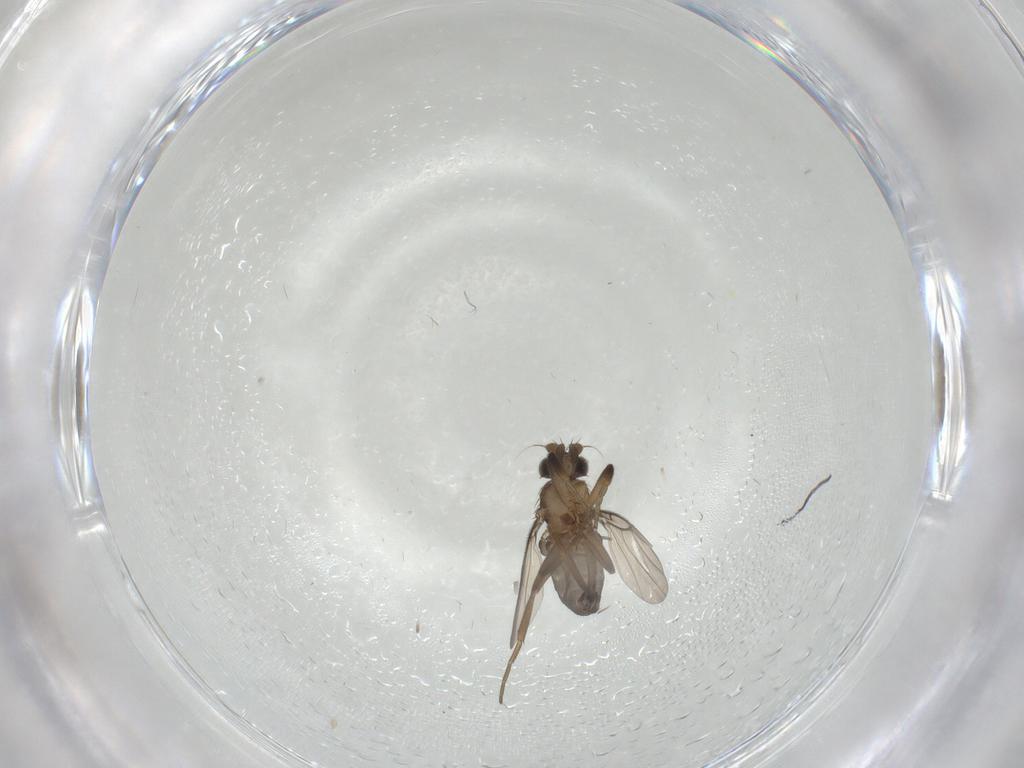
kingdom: Animalia
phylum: Arthropoda
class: Insecta
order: Diptera
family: Phoridae
